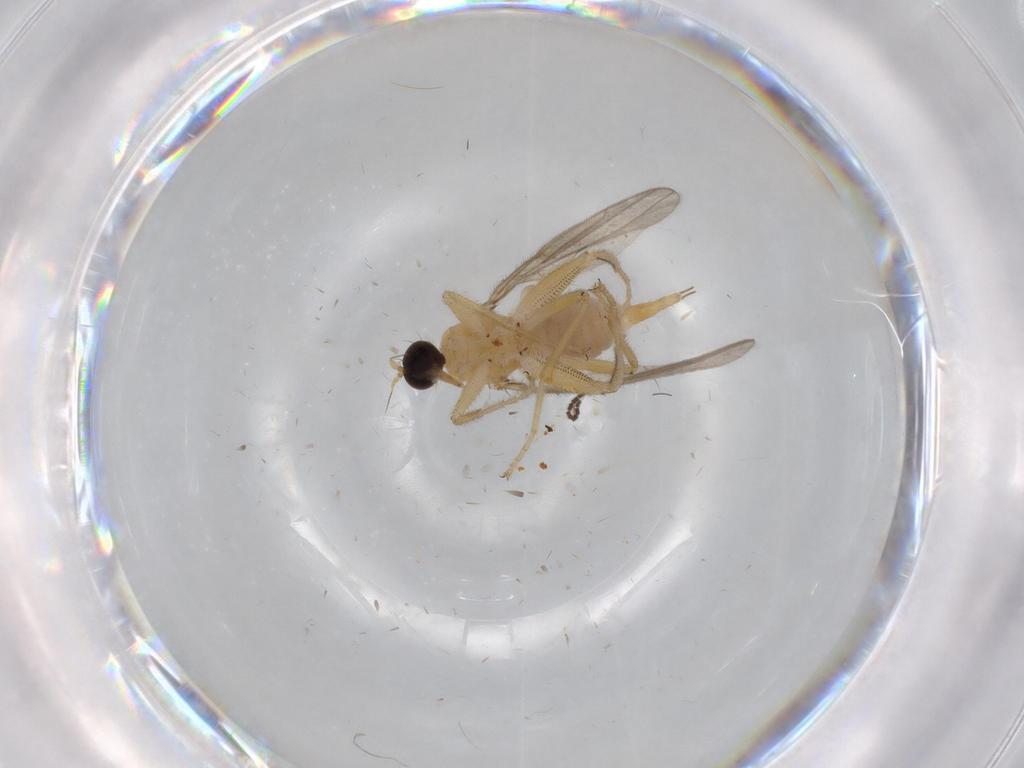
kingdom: Animalia
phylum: Arthropoda
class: Insecta
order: Diptera
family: Hybotidae
